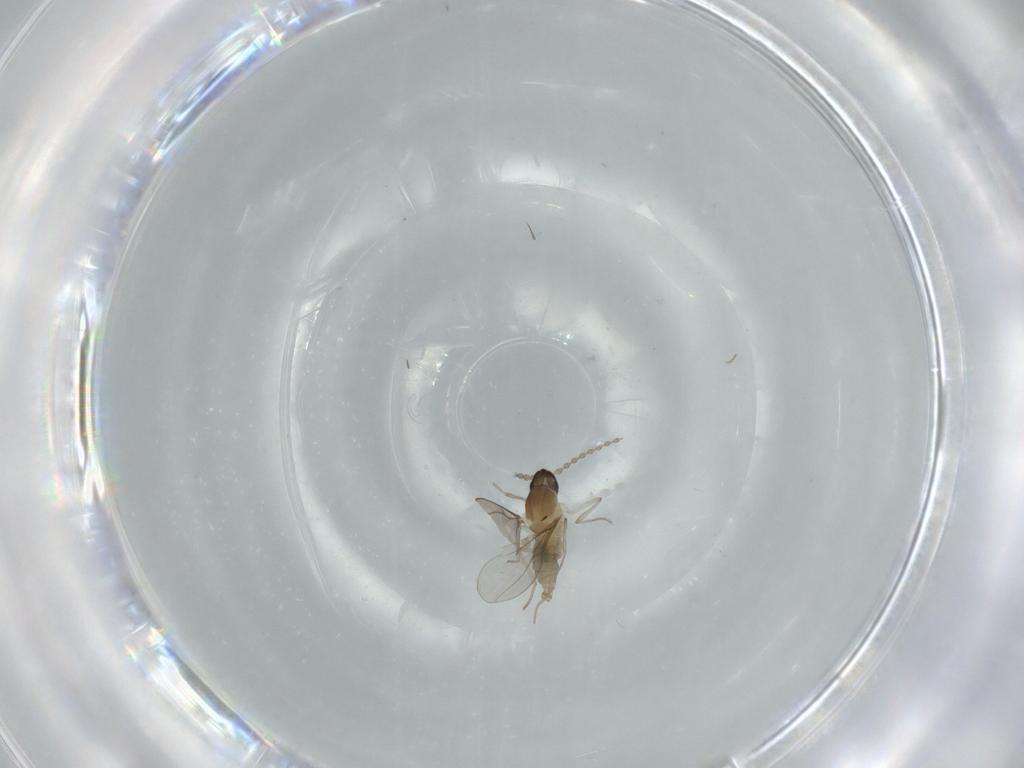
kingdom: Animalia
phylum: Arthropoda
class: Insecta
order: Diptera
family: Cecidomyiidae
